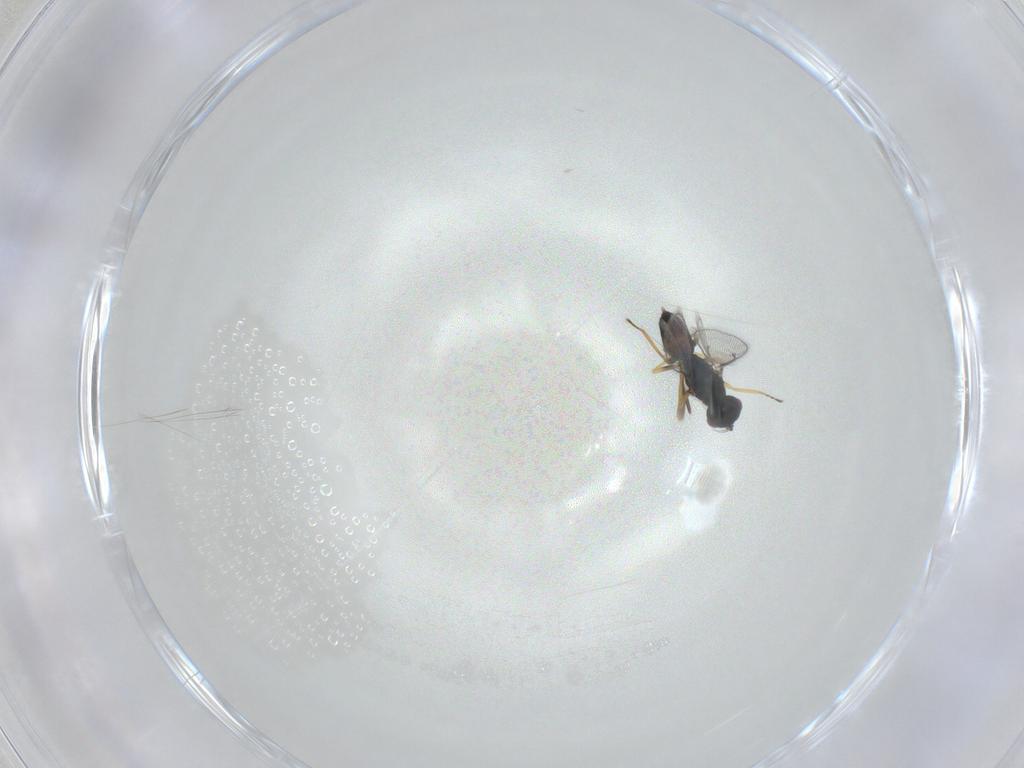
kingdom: Animalia
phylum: Arthropoda
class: Insecta
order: Hymenoptera
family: Eulophidae
